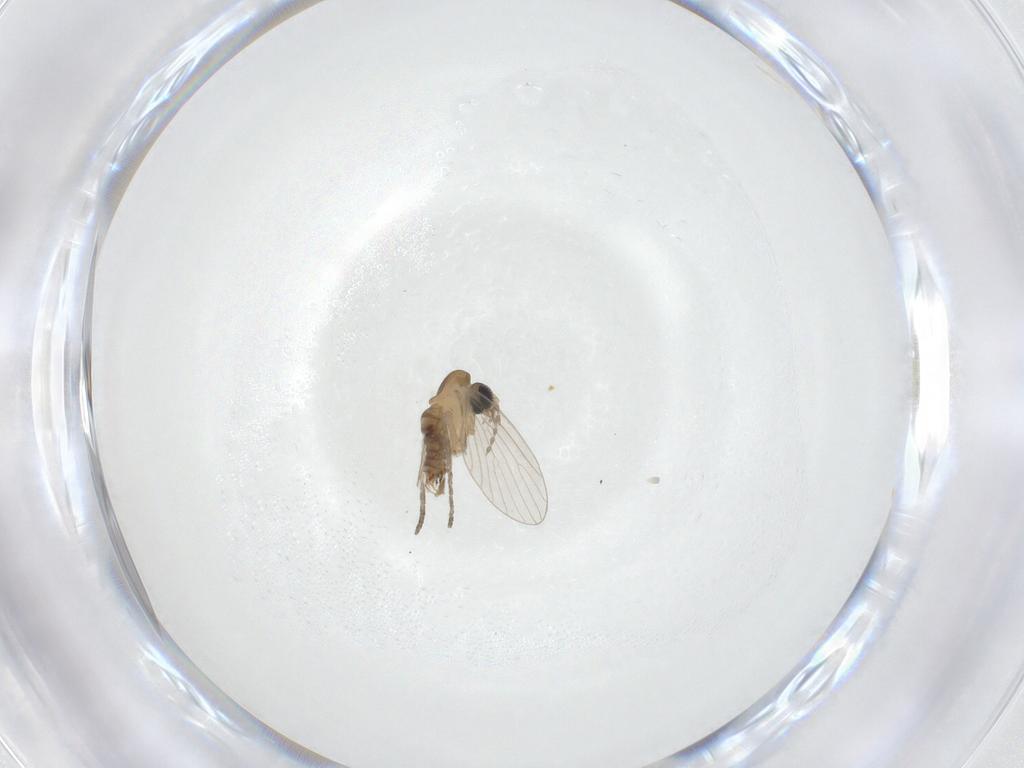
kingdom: Animalia
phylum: Arthropoda
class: Insecta
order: Diptera
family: Psychodidae
